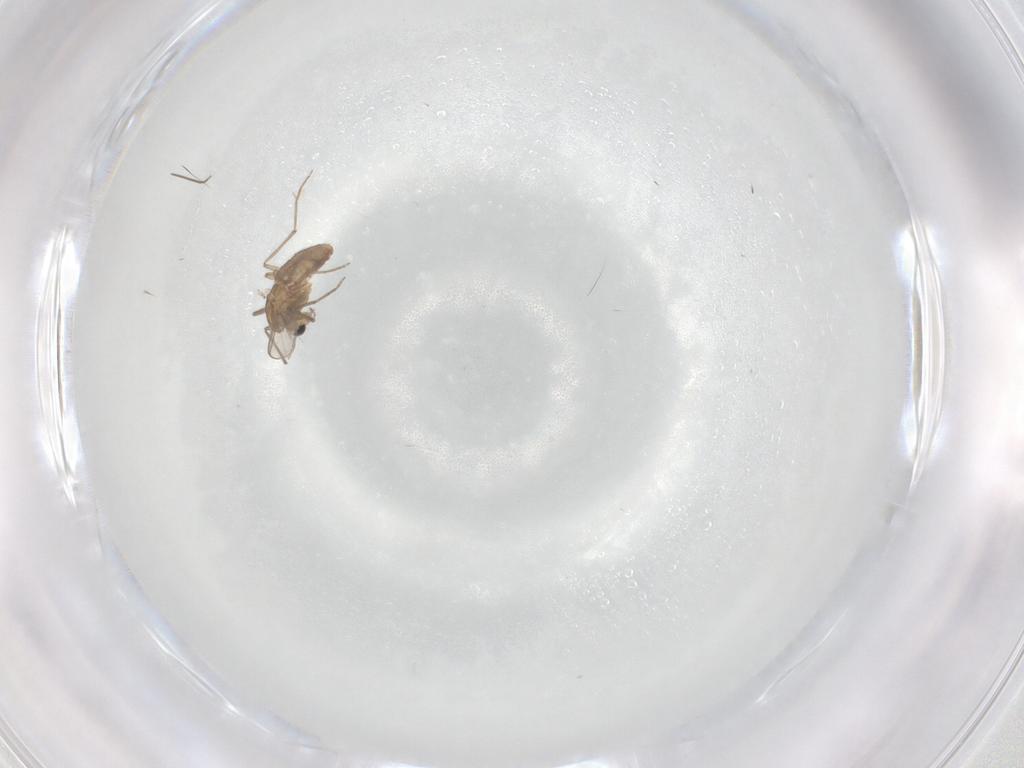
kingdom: Animalia
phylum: Arthropoda
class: Insecta
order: Diptera
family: Chironomidae
